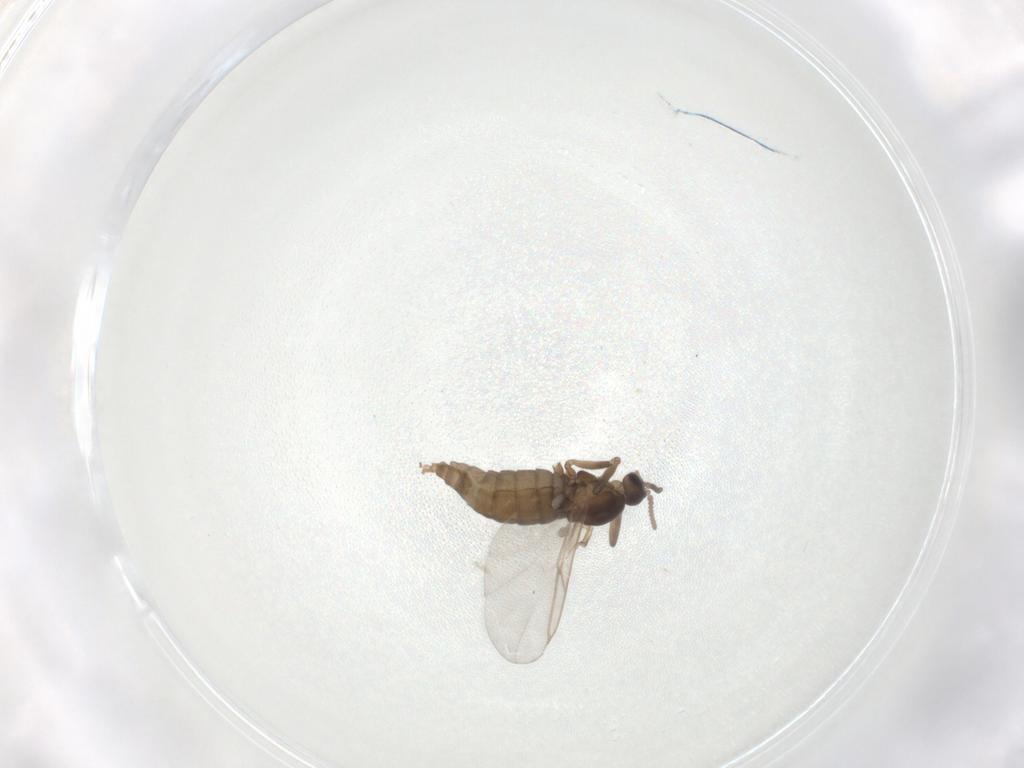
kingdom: Animalia
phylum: Arthropoda
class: Insecta
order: Diptera
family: Cecidomyiidae
